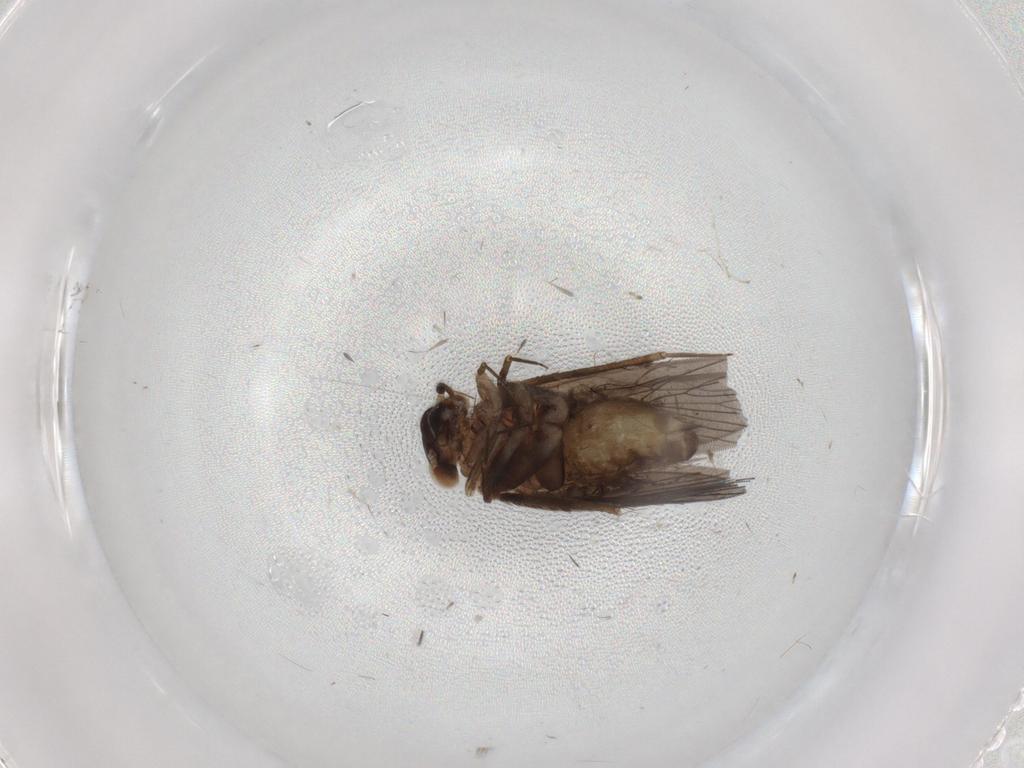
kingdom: Animalia
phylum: Arthropoda
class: Insecta
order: Psocodea
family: Lepidopsocidae
